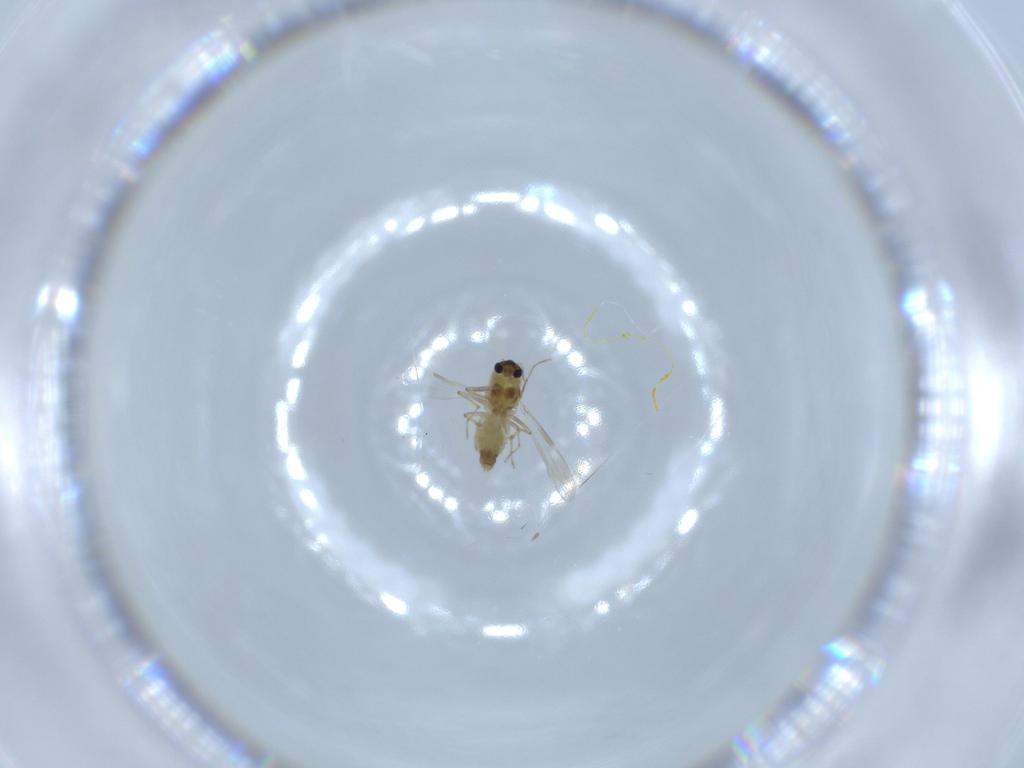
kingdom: Animalia
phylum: Arthropoda
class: Insecta
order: Diptera
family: Chironomidae
